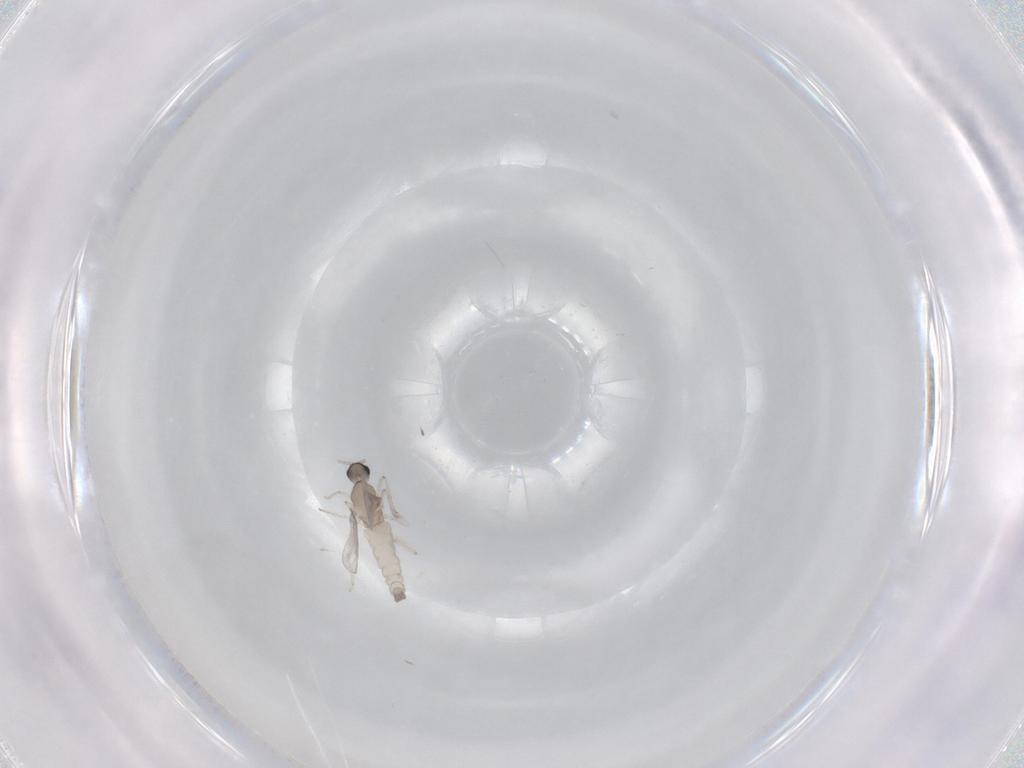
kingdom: Animalia
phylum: Arthropoda
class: Insecta
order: Diptera
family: Cecidomyiidae
